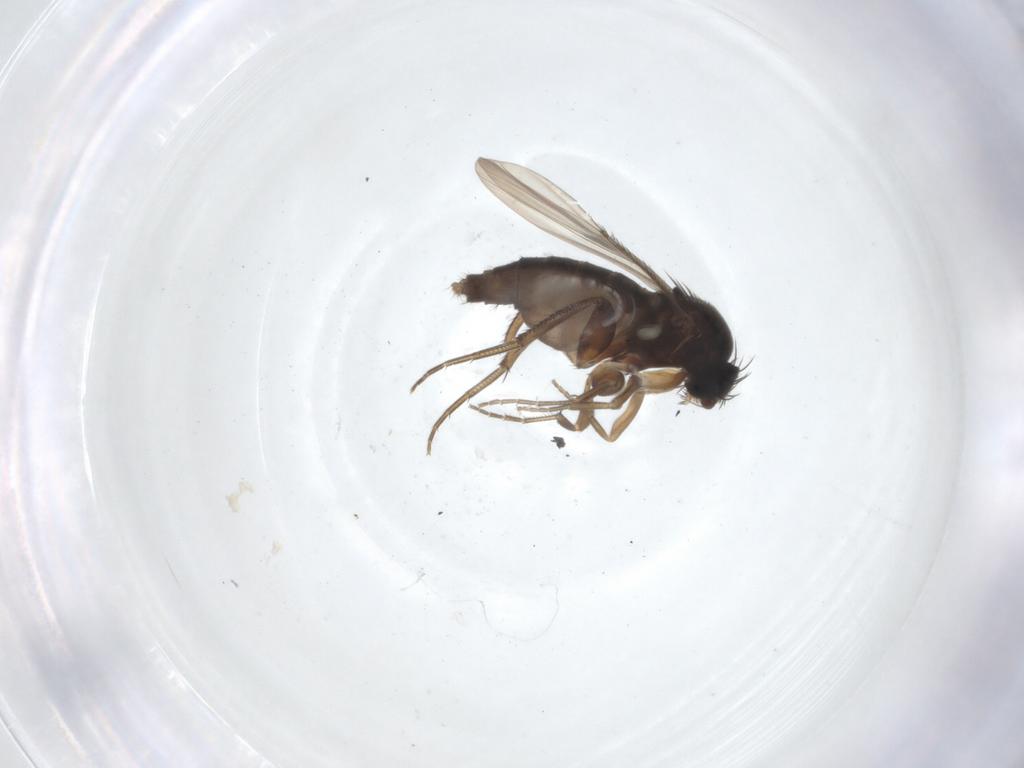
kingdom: Animalia
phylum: Arthropoda
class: Insecta
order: Diptera
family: Phoridae
